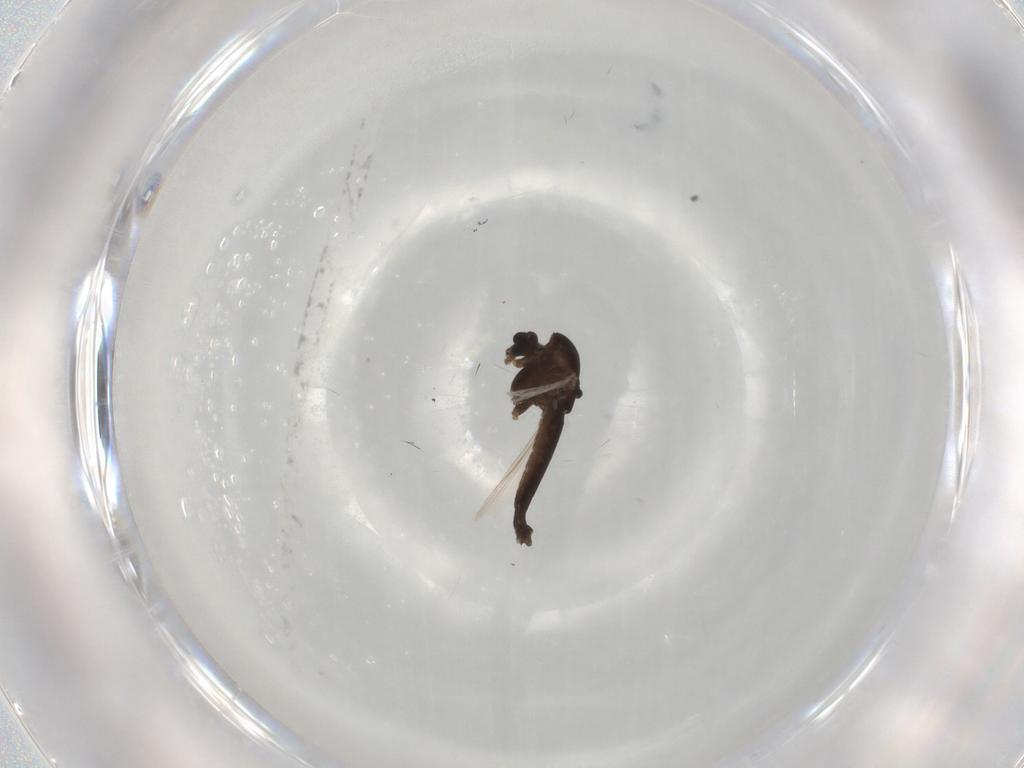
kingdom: Animalia
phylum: Arthropoda
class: Insecta
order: Diptera
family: Chironomidae
